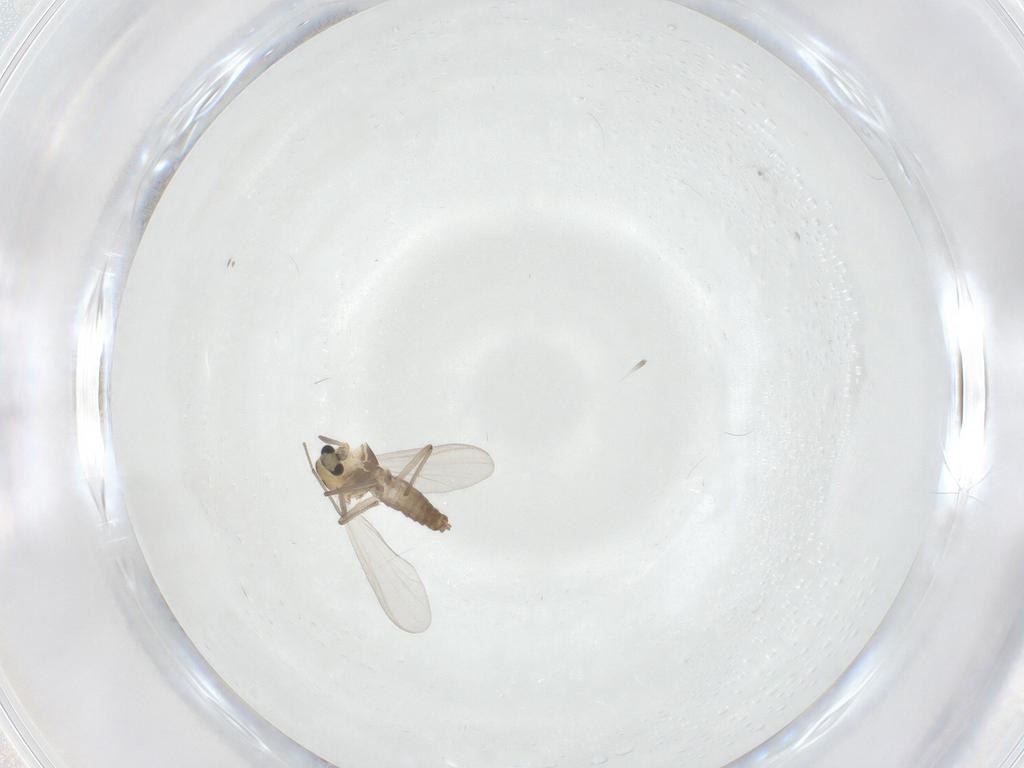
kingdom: Animalia
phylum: Arthropoda
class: Insecta
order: Diptera
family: Chironomidae
